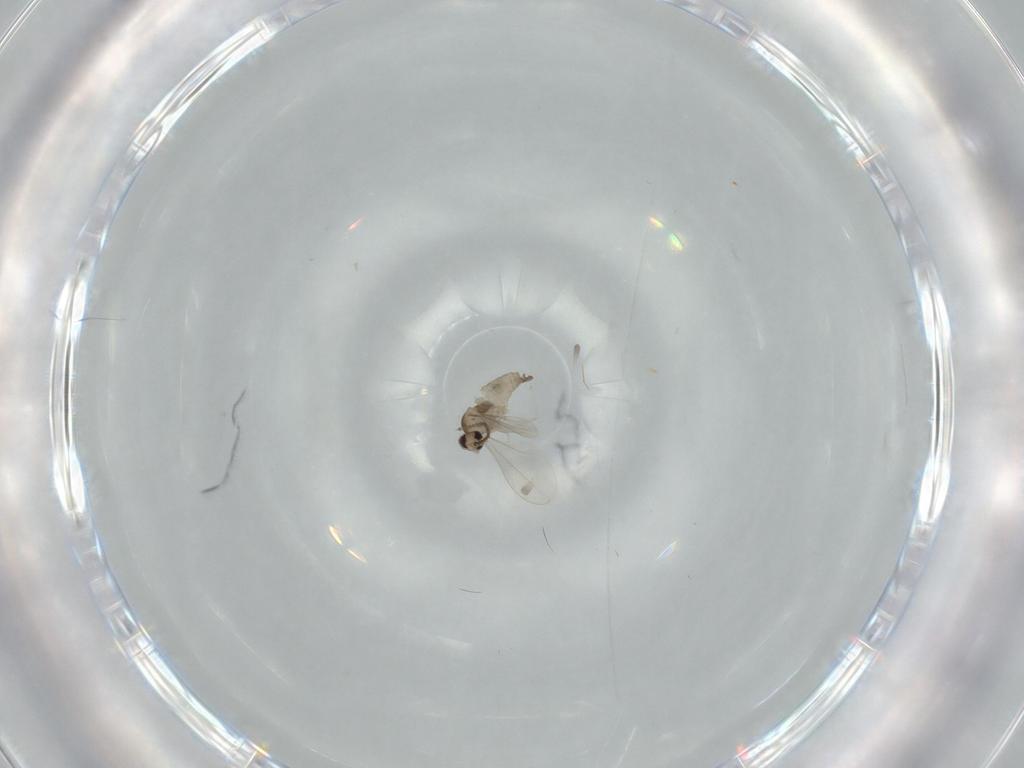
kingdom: Animalia
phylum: Arthropoda
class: Insecta
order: Diptera
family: Cecidomyiidae
